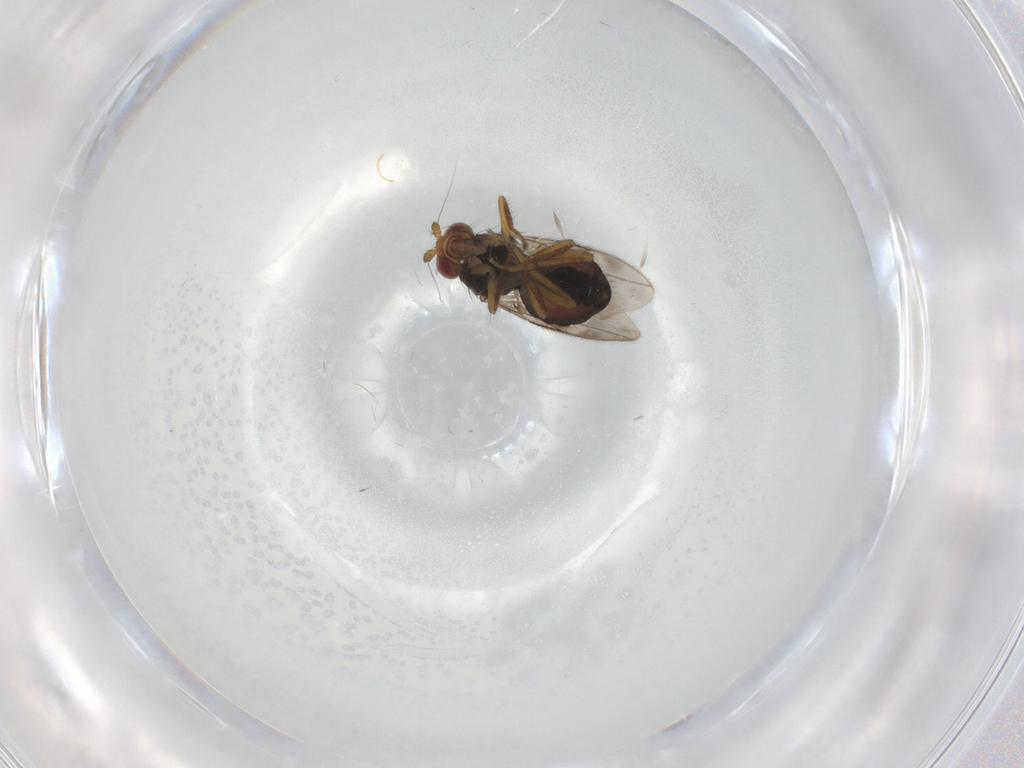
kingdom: Animalia
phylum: Arthropoda
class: Insecta
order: Diptera
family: Sphaeroceridae
